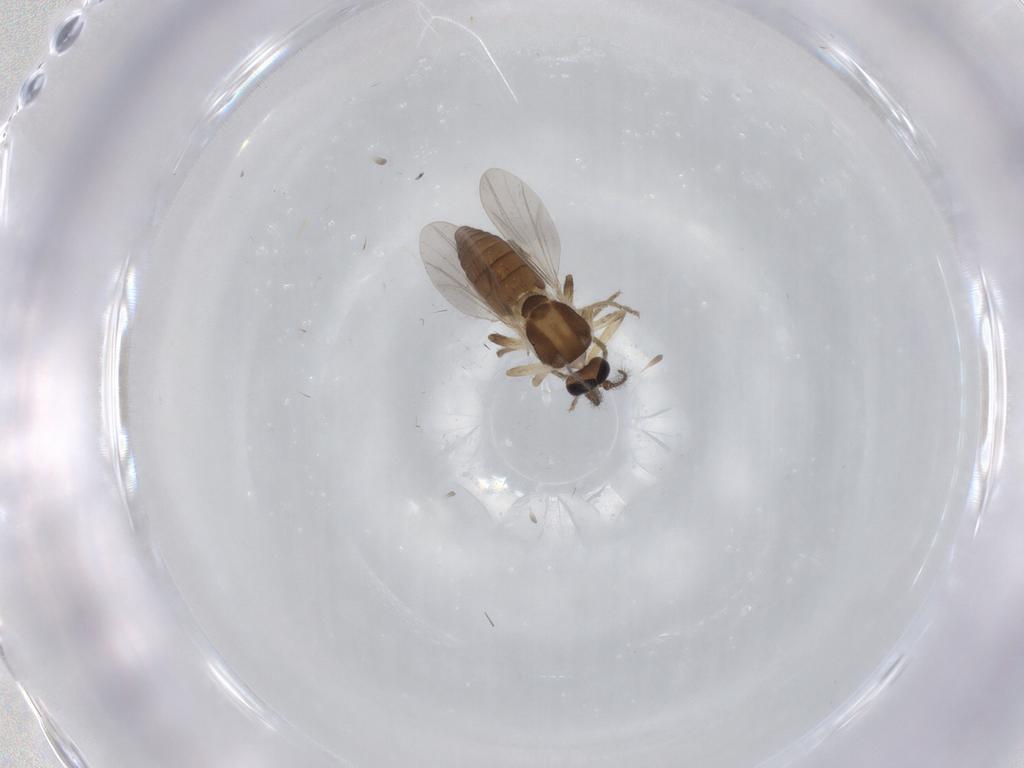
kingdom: Animalia
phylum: Arthropoda
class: Insecta
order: Diptera
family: Ceratopogonidae
